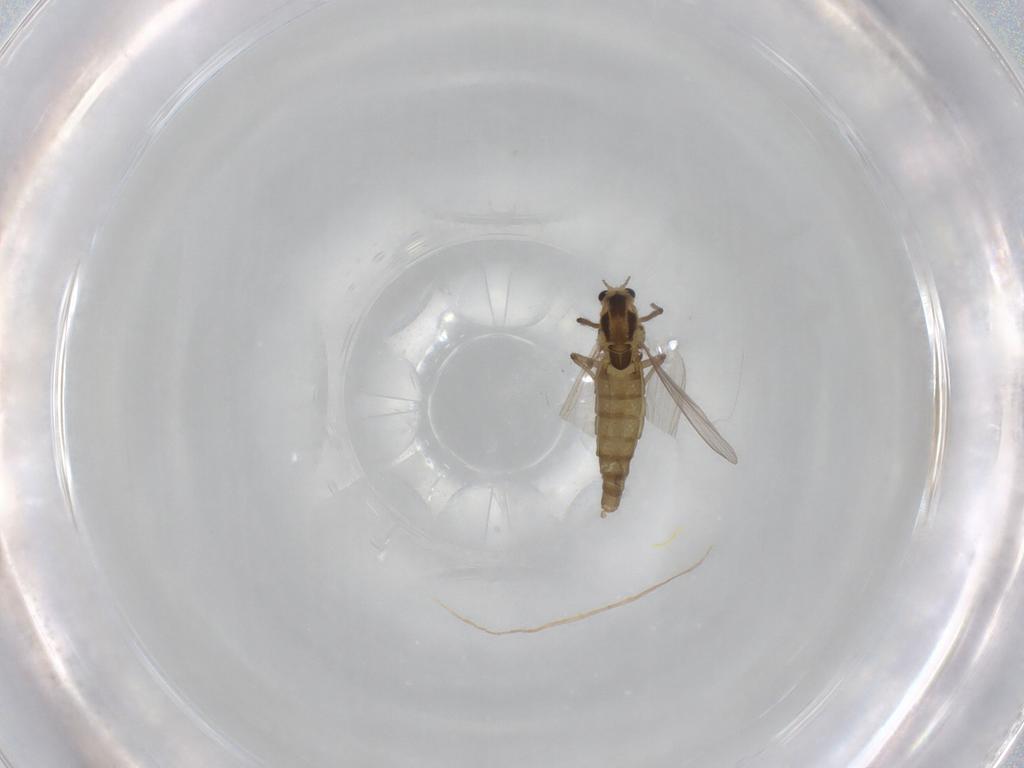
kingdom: Animalia
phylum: Arthropoda
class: Insecta
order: Diptera
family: Chironomidae
